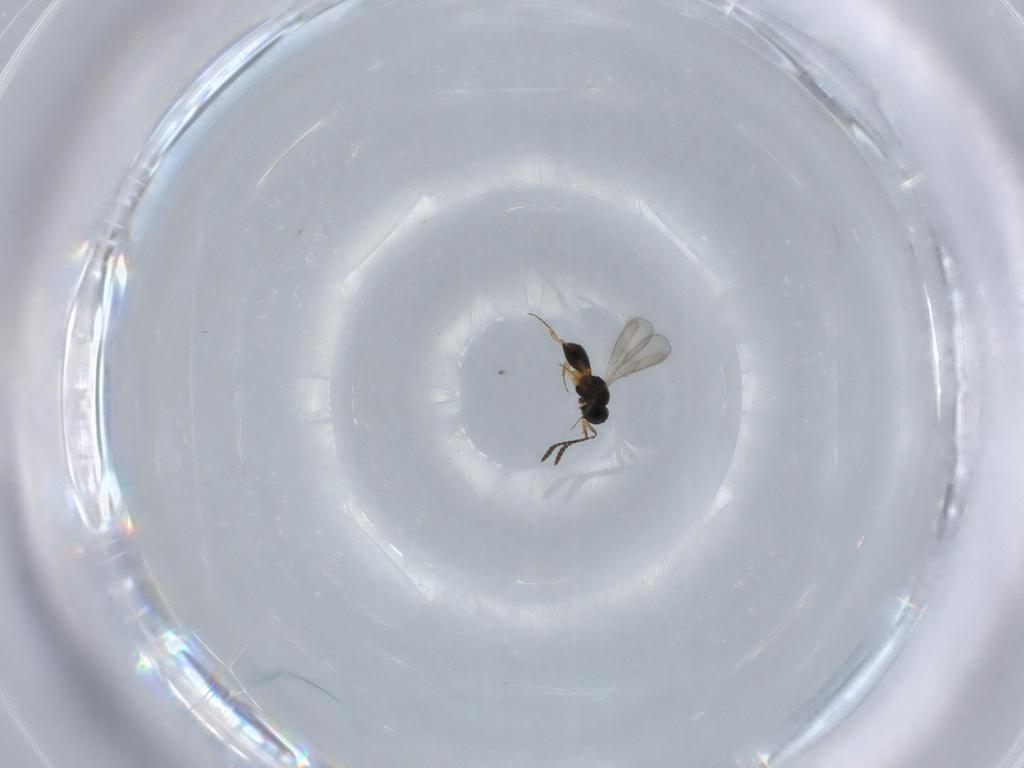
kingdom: Animalia
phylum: Arthropoda
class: Insecta
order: Hymenoptera
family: Scelionidae
